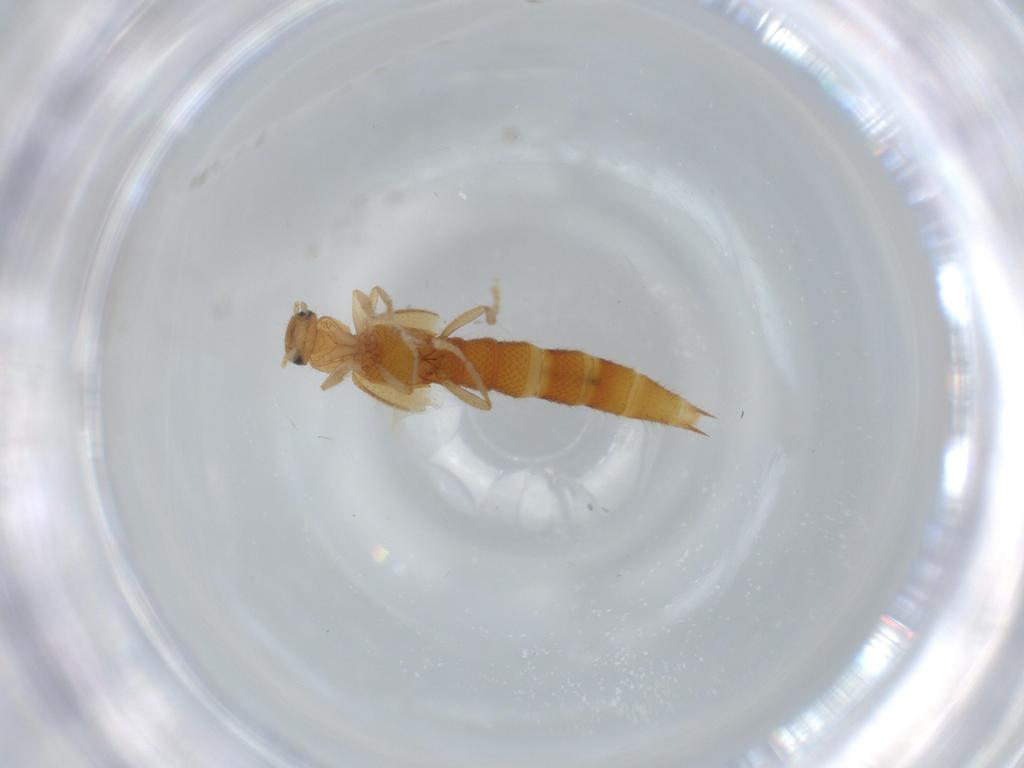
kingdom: Animalia
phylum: Arthropoda
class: Insecta
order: Coleoptera
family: Staphylinidae
